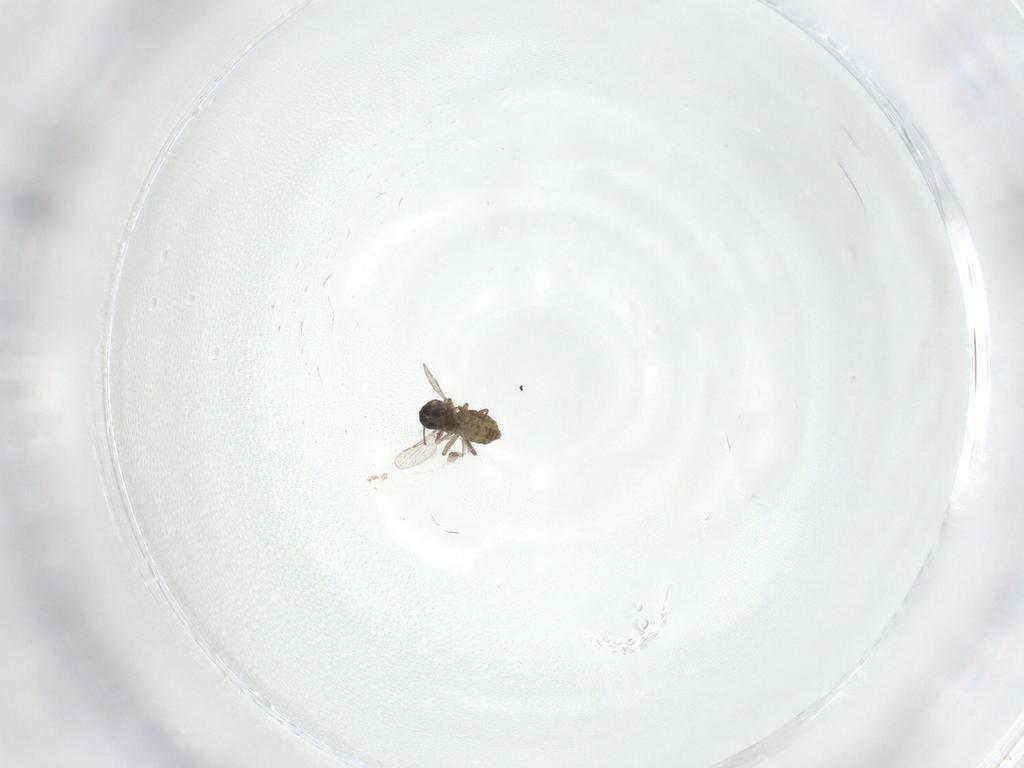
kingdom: Animalia
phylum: Arthropoda
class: Insecta
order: Diptera
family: Ceratopogonidae
